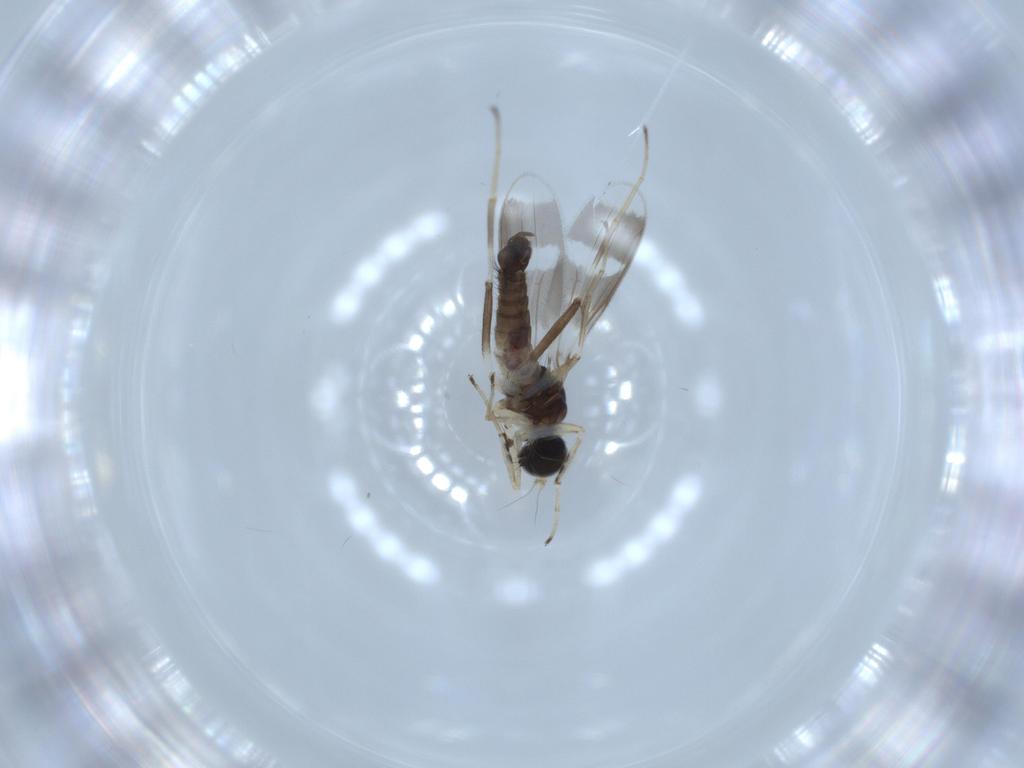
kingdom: Animalia
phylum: Arthropoda
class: Insecta
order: Diptera
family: Hybotidae
